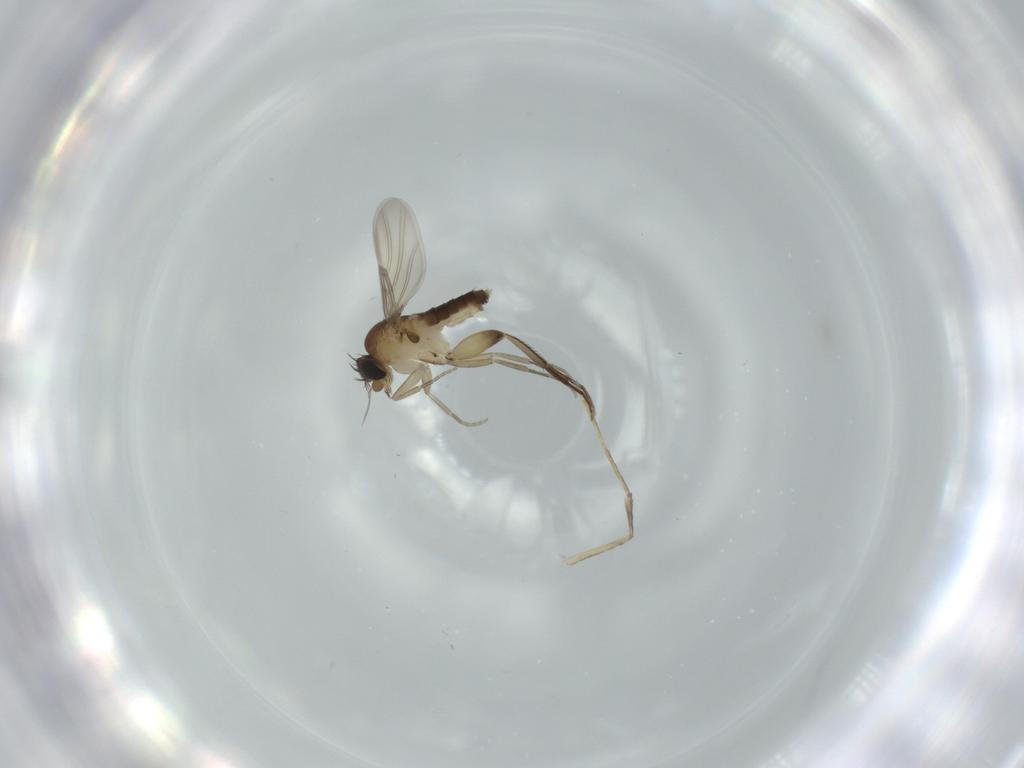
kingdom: Animalia
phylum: Arthropoda
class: Insecta
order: Diptera
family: Phoridae
